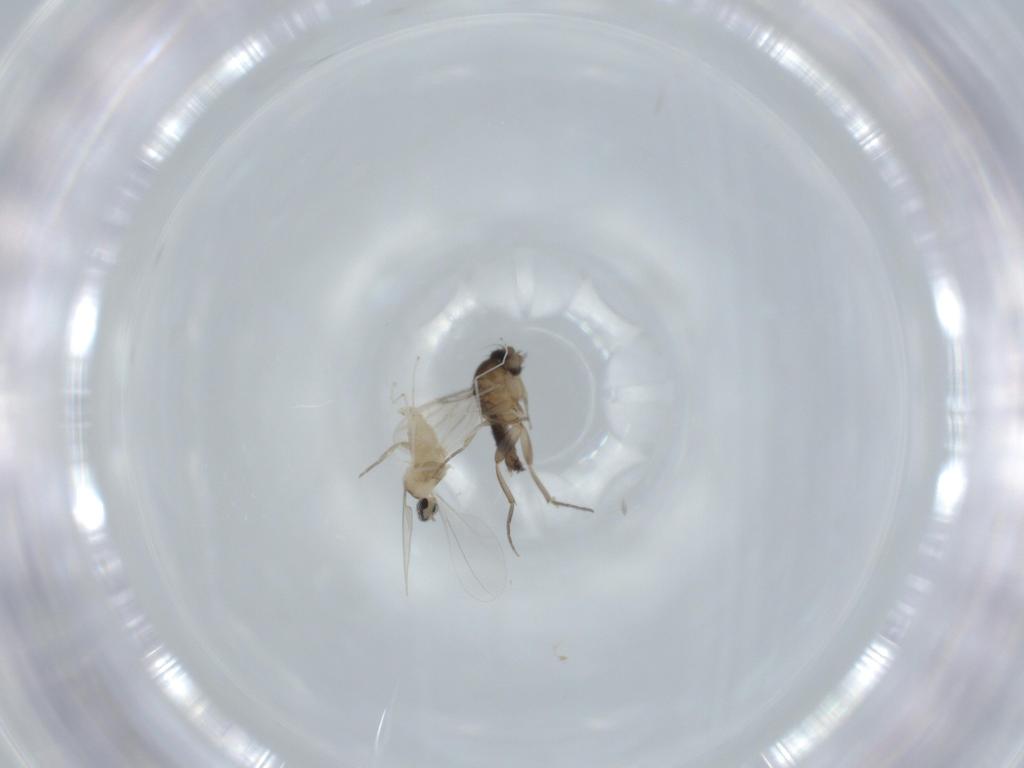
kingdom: Animalia
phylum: Arthropoda
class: Insecta
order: Diptera
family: Phoridae
